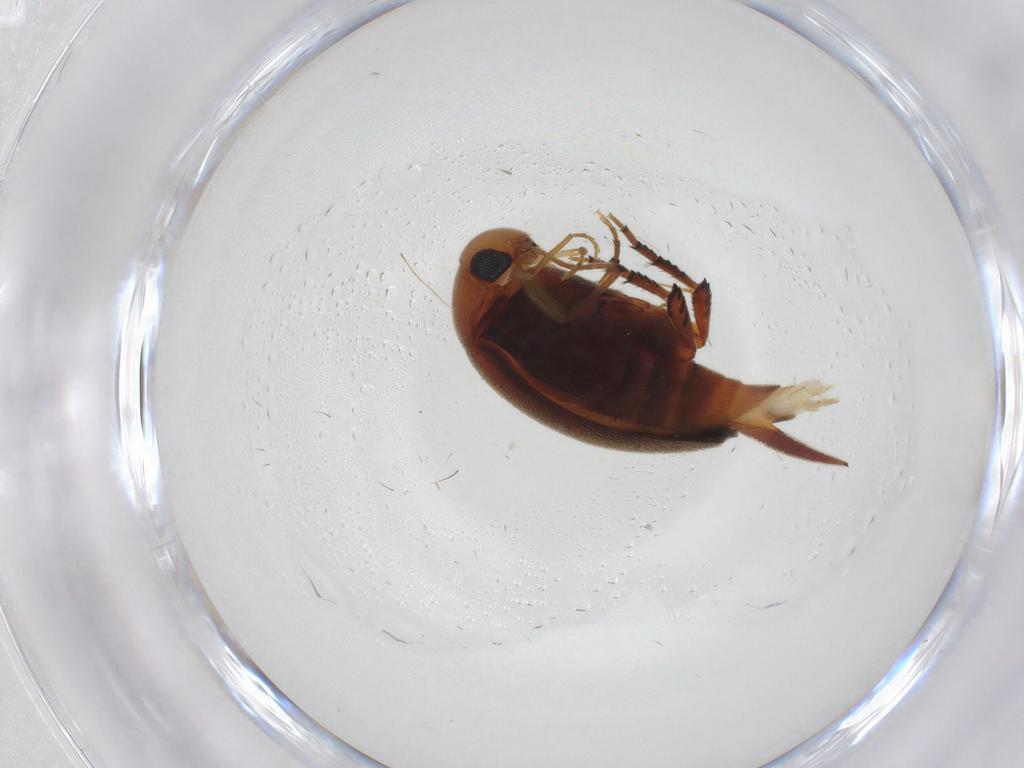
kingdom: Animalia
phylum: Arthropoda
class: Insecta
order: Coleoptera
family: Mordellidae
